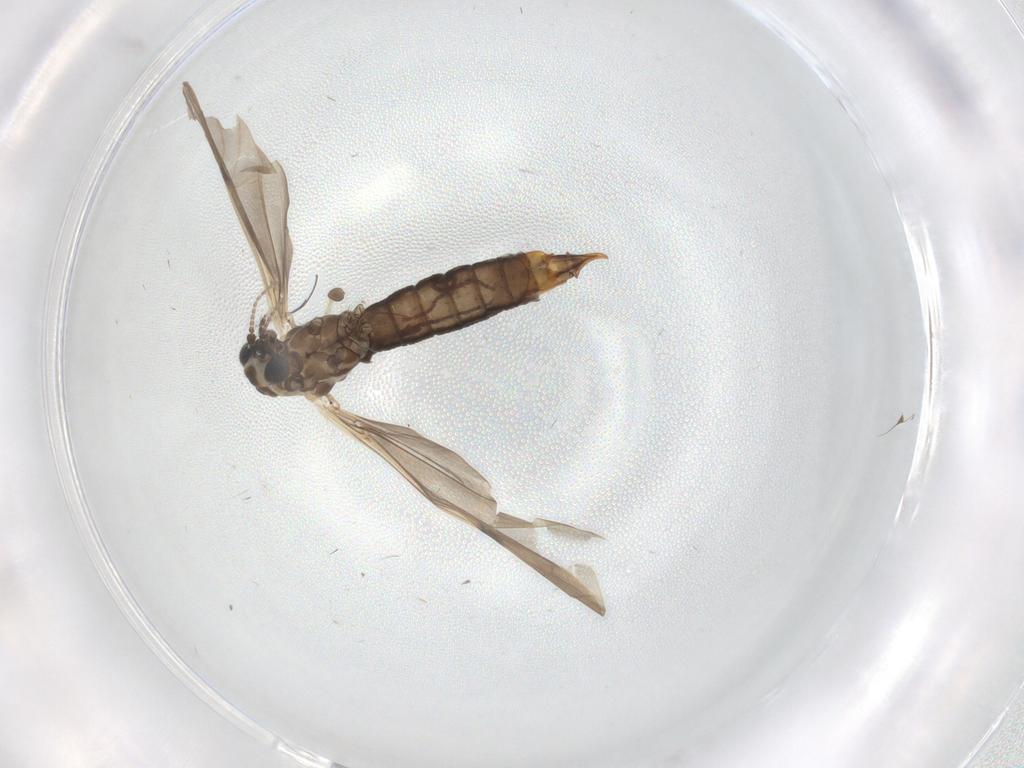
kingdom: Animalia
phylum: Arthropoda
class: Insecta
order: Diptera
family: Limoniidae
